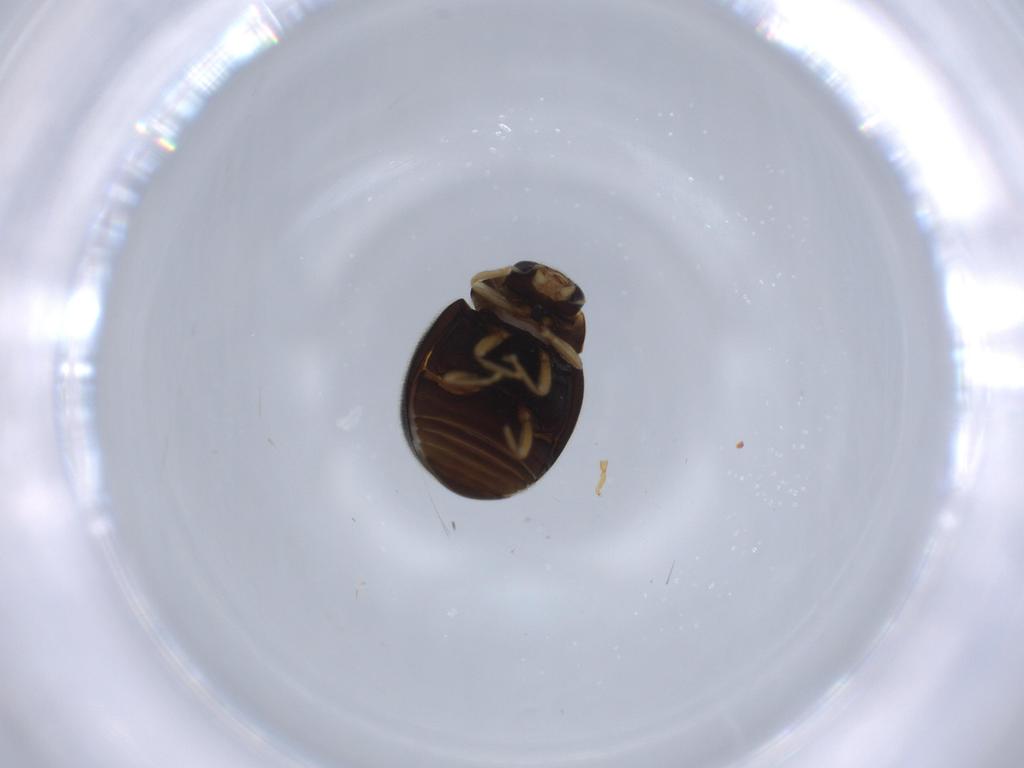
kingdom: Animalia
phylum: Arthropoda
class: Insecta
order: Coleoptera
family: Coccinellidae
